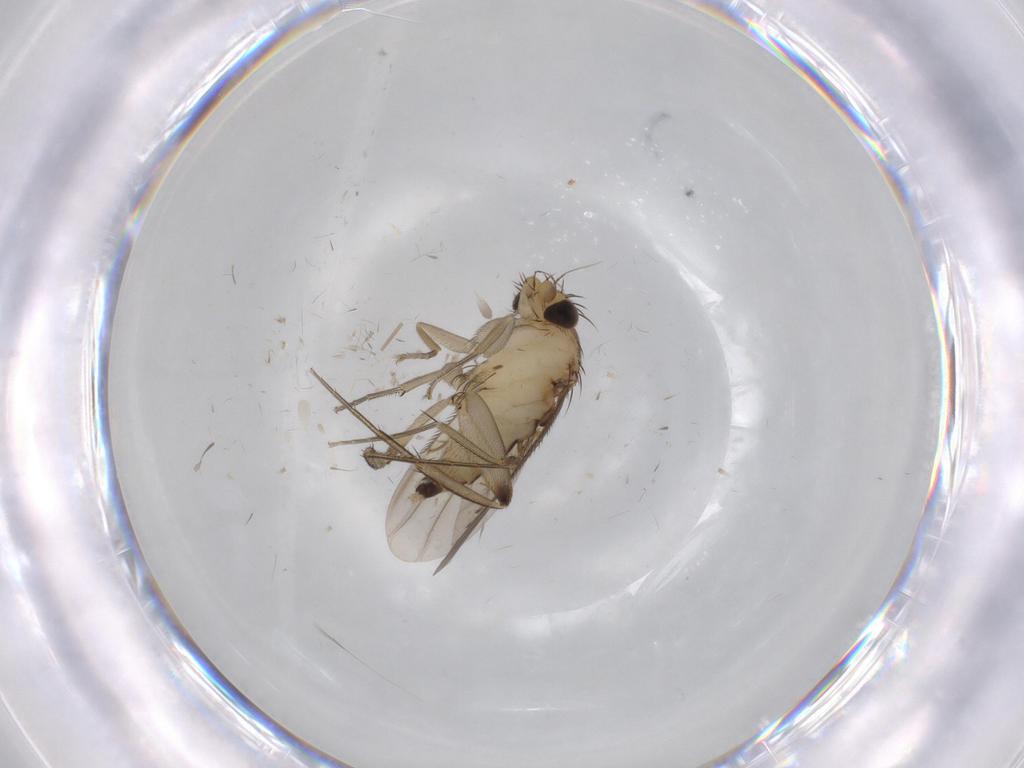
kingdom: Animalia
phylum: Arthropoda
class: Insecta
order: Diptera
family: Phoridae
